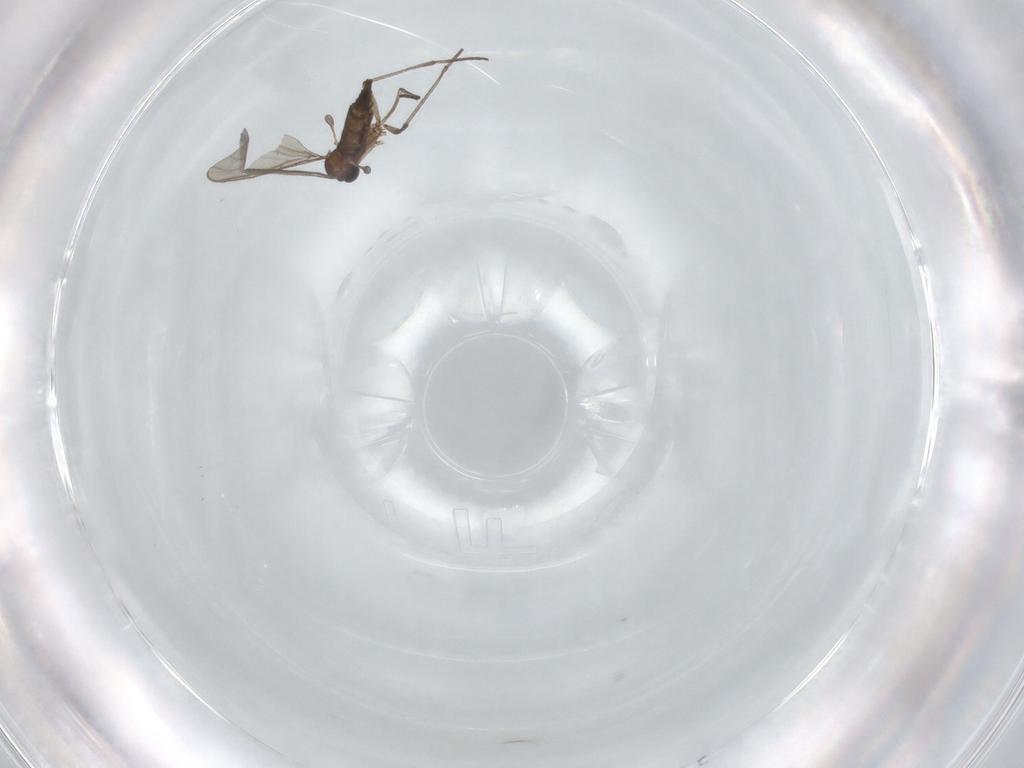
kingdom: Animalia
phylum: Arthropoda
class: Insecta
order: Diptera
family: Sciaridae
